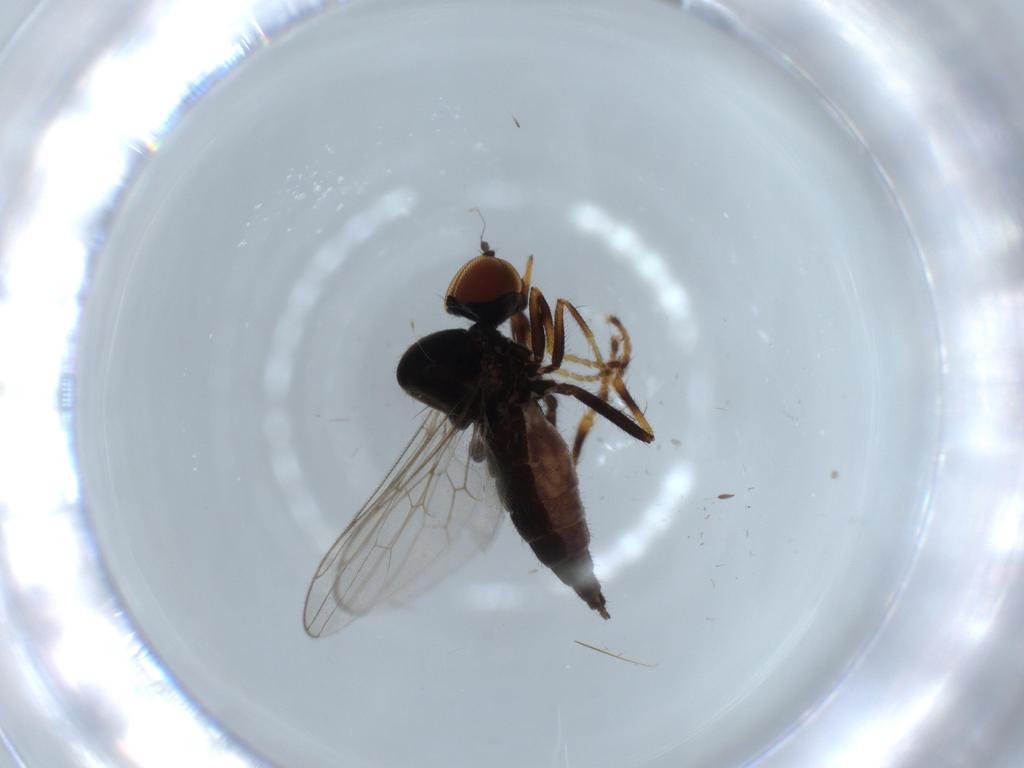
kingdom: Animalia
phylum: Arthropoda
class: Insecta
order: Diptera
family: Hybotidae
